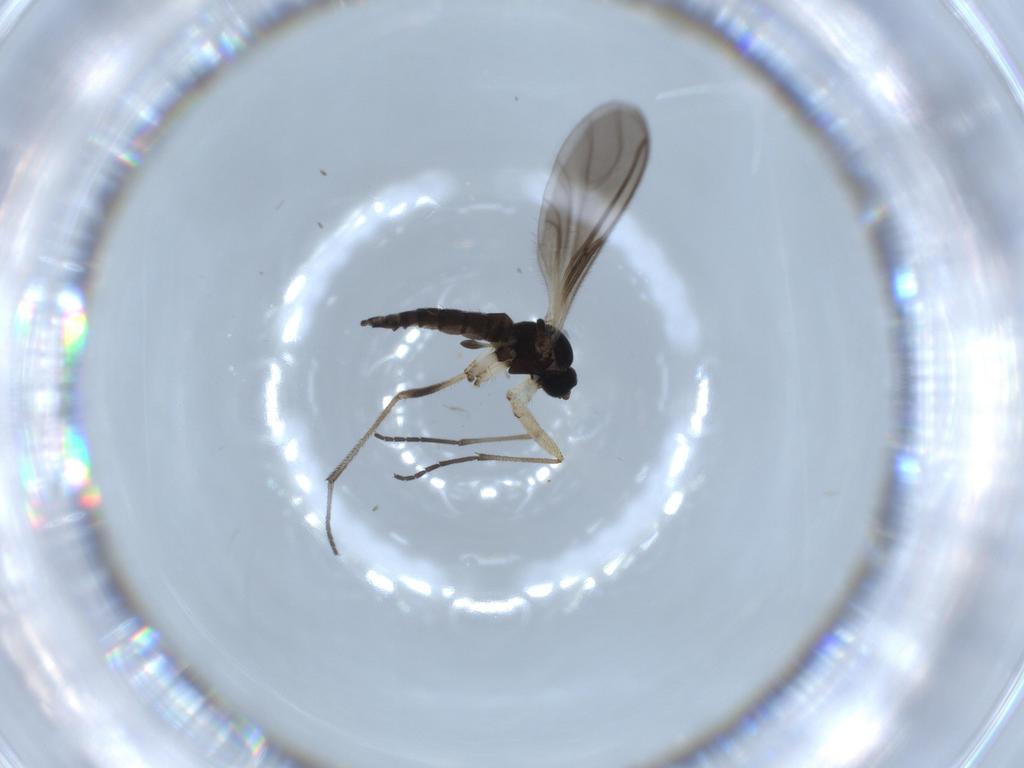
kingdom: Animalia
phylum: Arthropoda
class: Insecta
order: Diptera
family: Sciaridae
